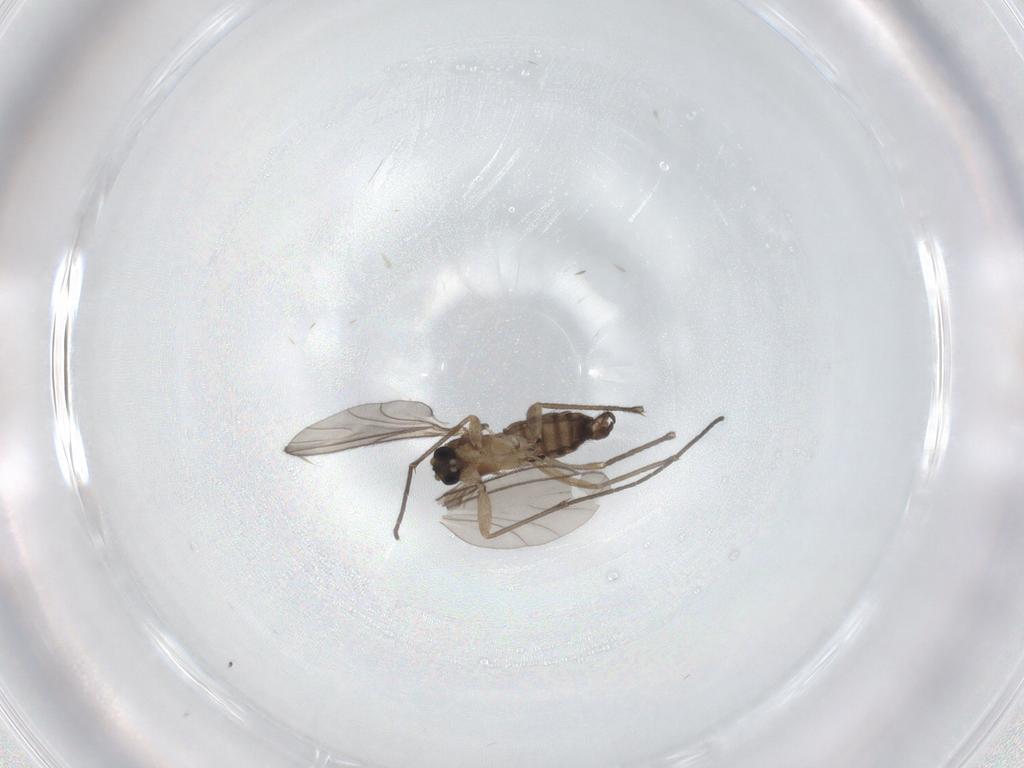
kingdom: Animalia
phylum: Arthropoda
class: Insecta
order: Diptera
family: Sciaridae
